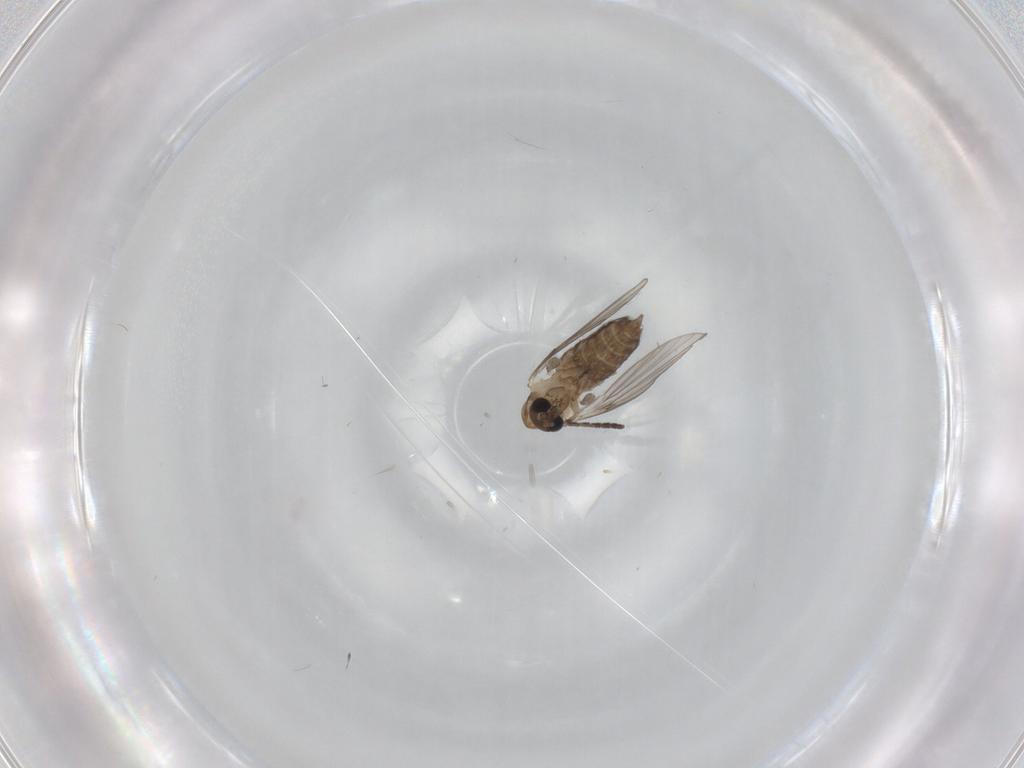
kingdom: Animalia
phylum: Arthropoda
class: Insecta
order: Diptera
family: Psychodidae
